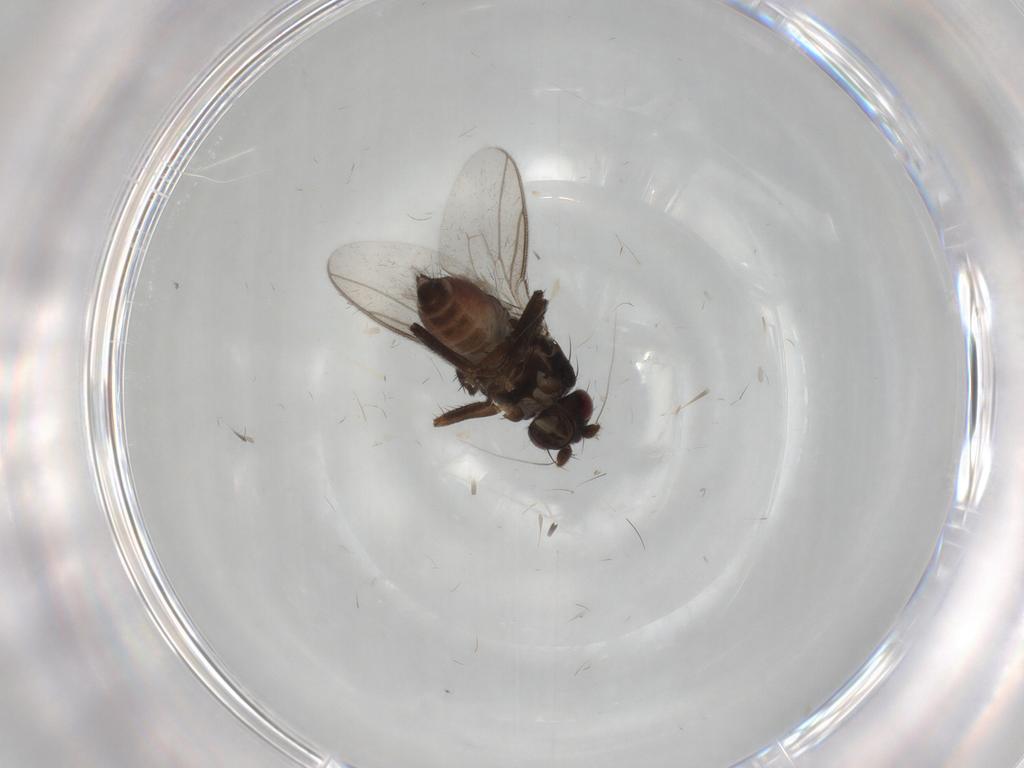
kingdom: Animalia
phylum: Arthropoda
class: Insecta
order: Diptera
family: Sphaeroceridae
